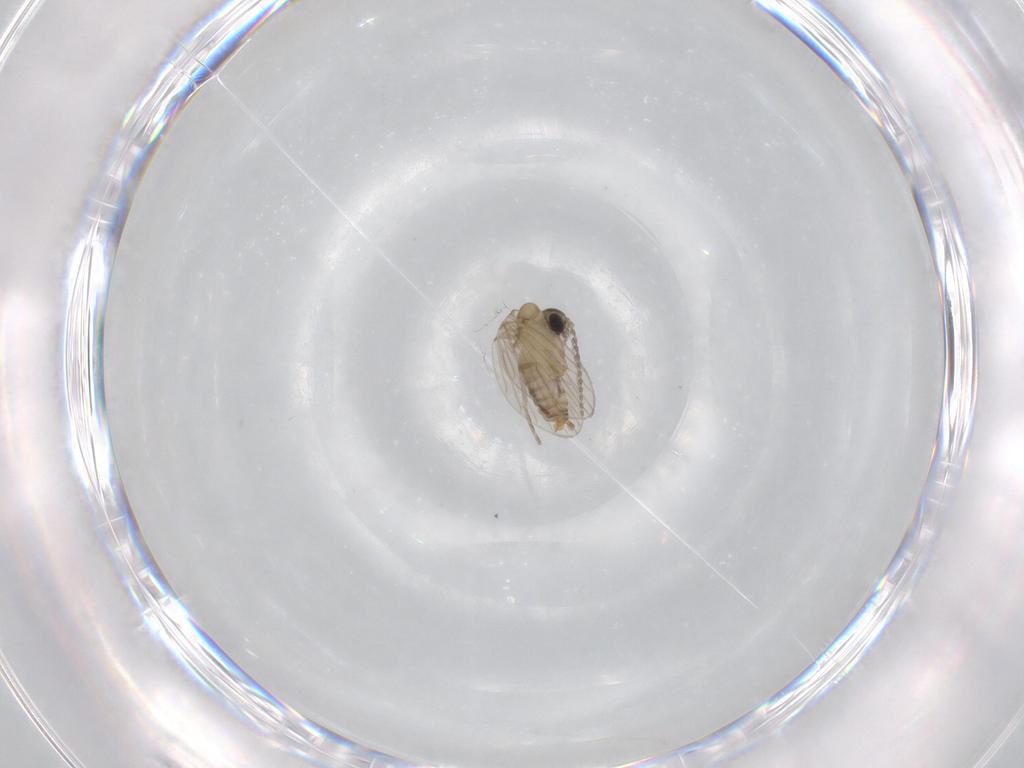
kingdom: Animalia
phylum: Arthropoda
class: Insecta
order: Diptera
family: Psychodidae
